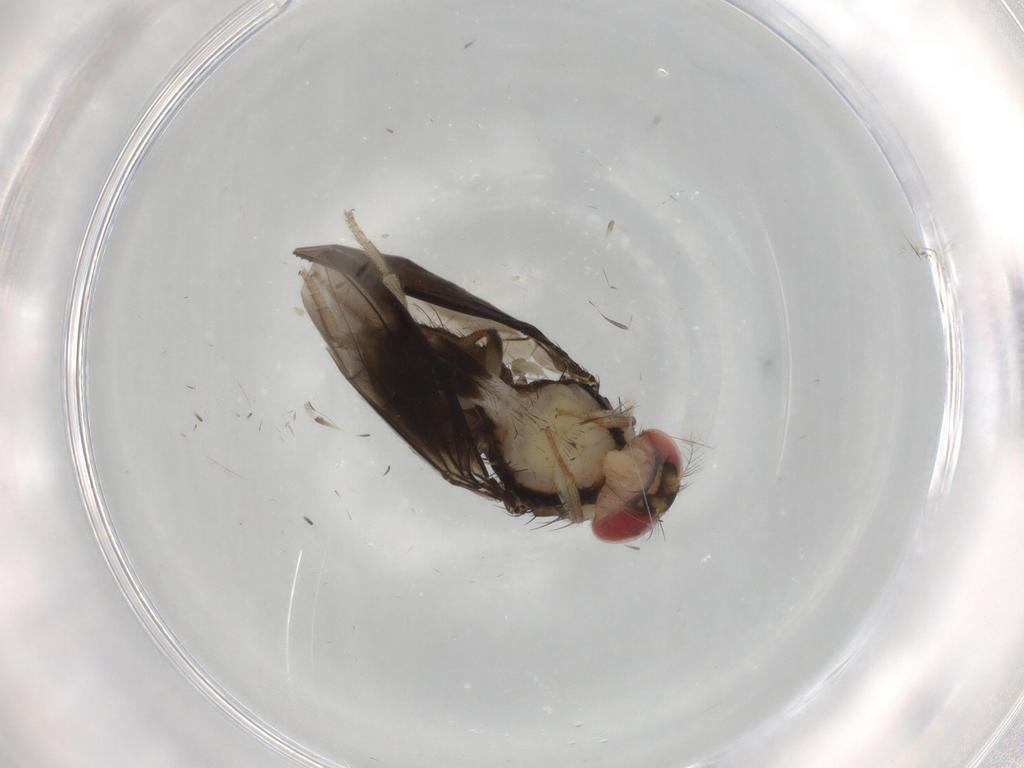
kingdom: Animalia
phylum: Arthropoda
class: Insecta
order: Diptera
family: Drosophilidae
